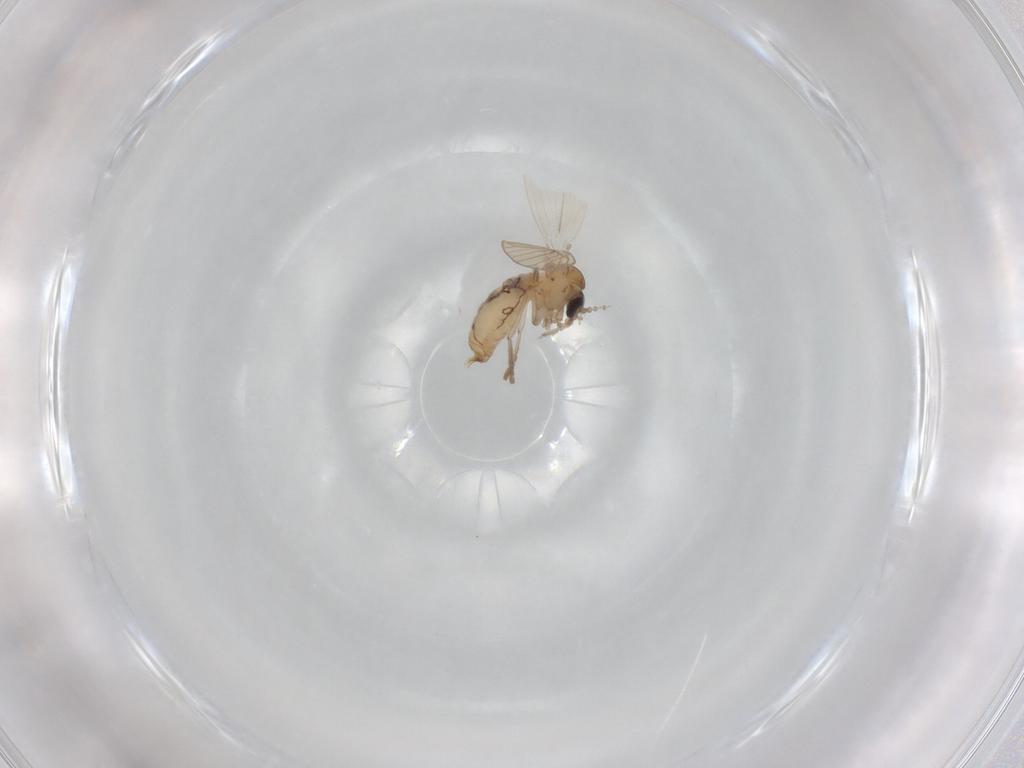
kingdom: Animalia
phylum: Arthropoda
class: Insecta
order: Diptera
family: Psychodidae
